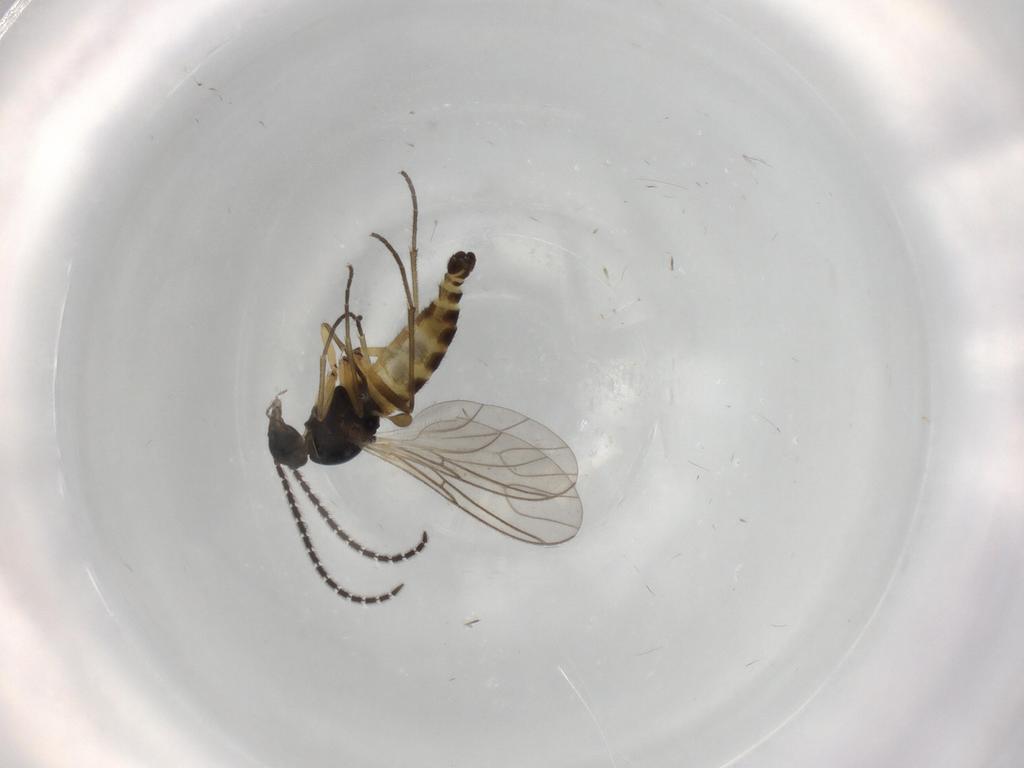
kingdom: Animalia
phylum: Arthropoda
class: Insecta
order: Diptera
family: Sciaridae
